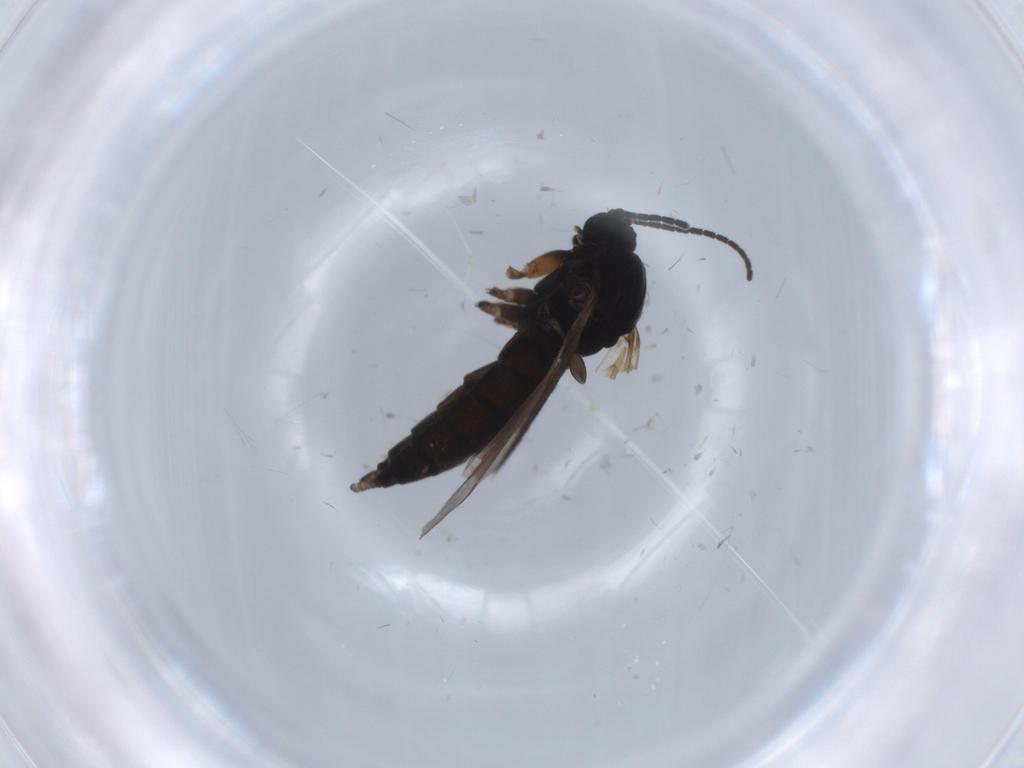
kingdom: Animalia
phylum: Arthropoda
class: Insecta
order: Diptera
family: Sciaridae
